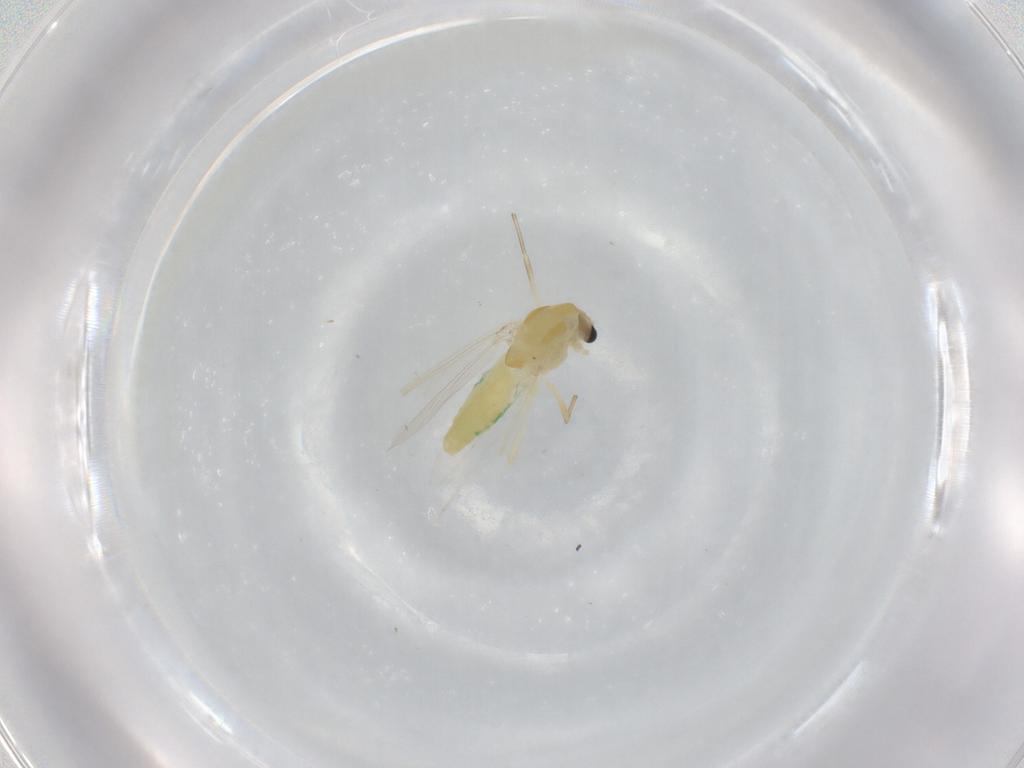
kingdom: Animalia
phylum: Arthropoda
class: Insecta
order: Diptera
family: Chironomidae
